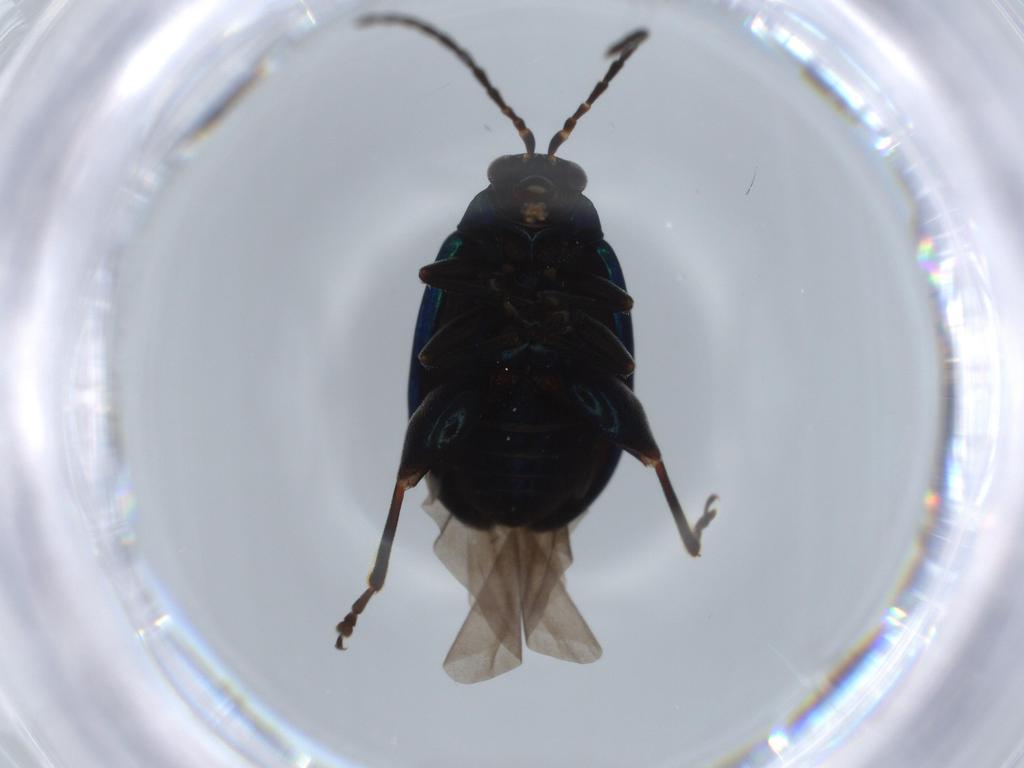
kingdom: Animalia
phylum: Arthropoda
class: Insecta
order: Coleoptera
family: Chrysomelidae
